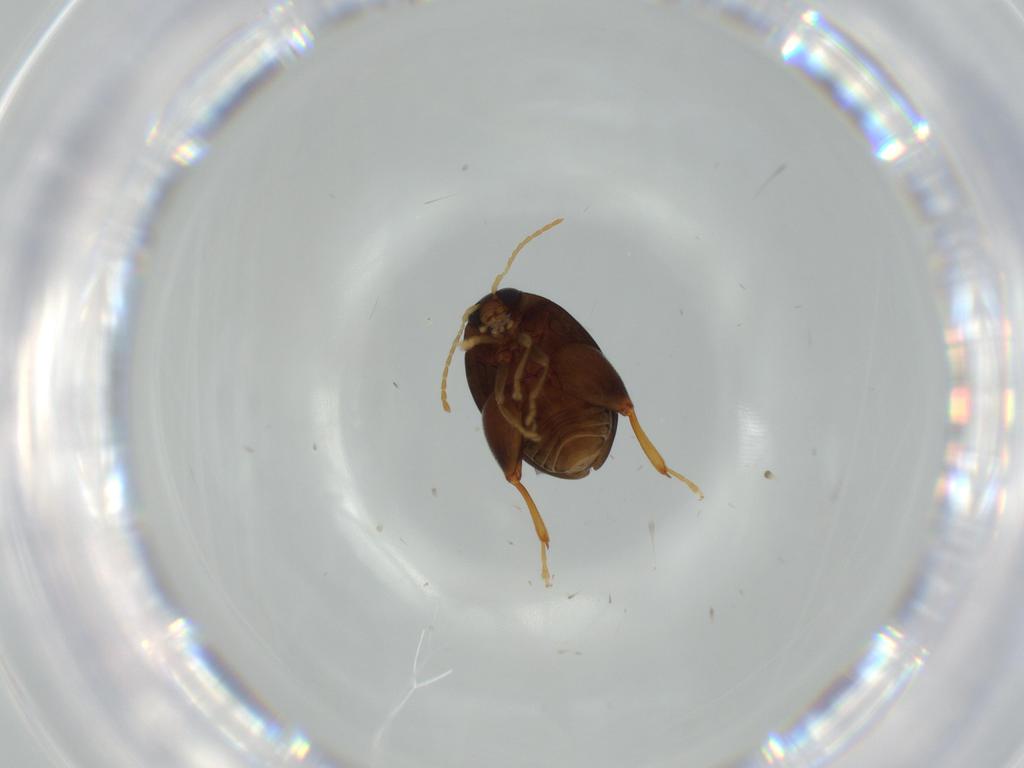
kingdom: Animalia
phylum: Arthropoda
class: Insecta
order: Coleoptera
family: Chrysomelidae
